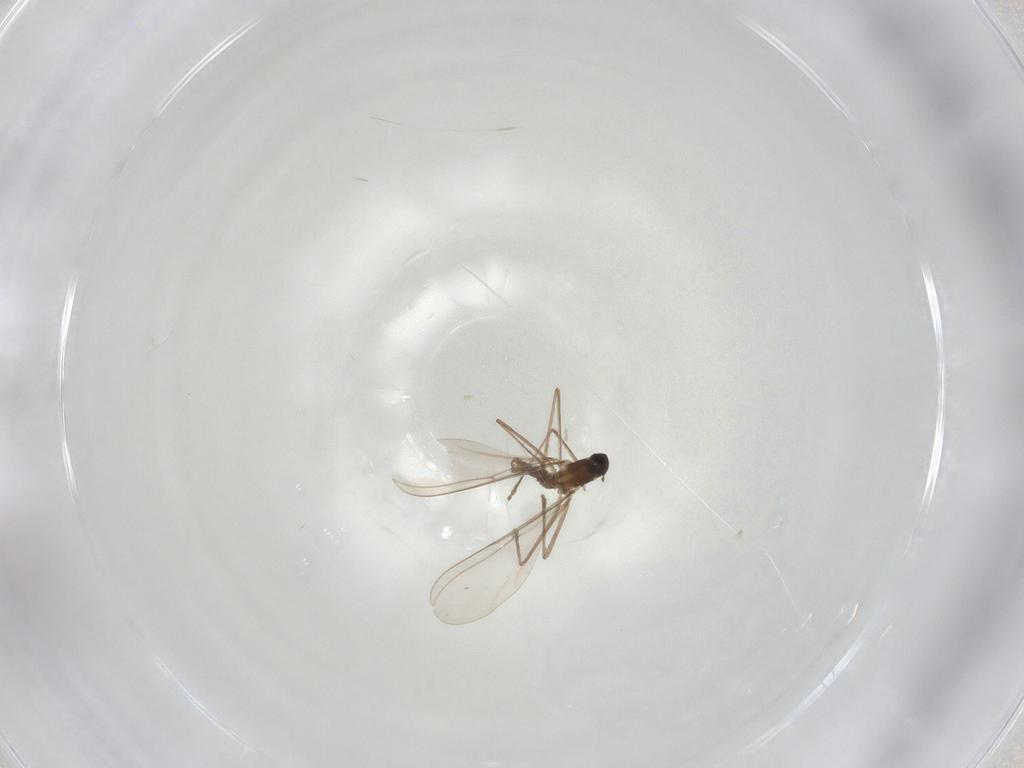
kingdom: Animalia
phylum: Arthropoda
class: Insecta
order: Diptera
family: Cecidomyiidae
